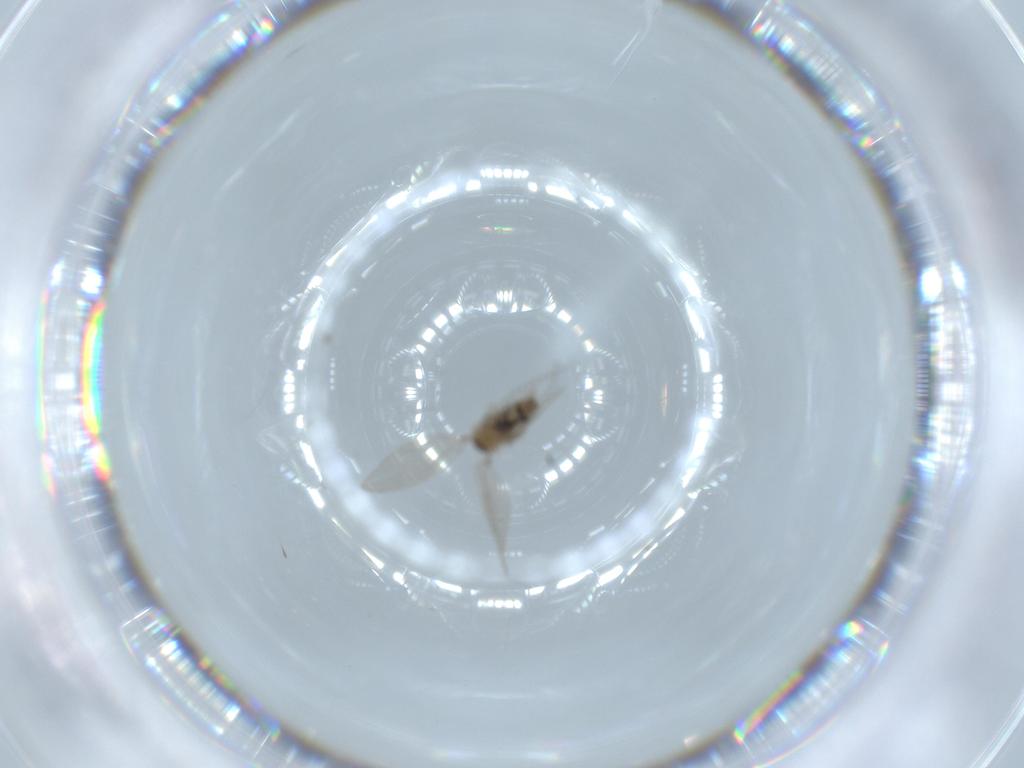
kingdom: Animalia
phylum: Arthropoda
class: Insecta
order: Diptera
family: Psychodidae
